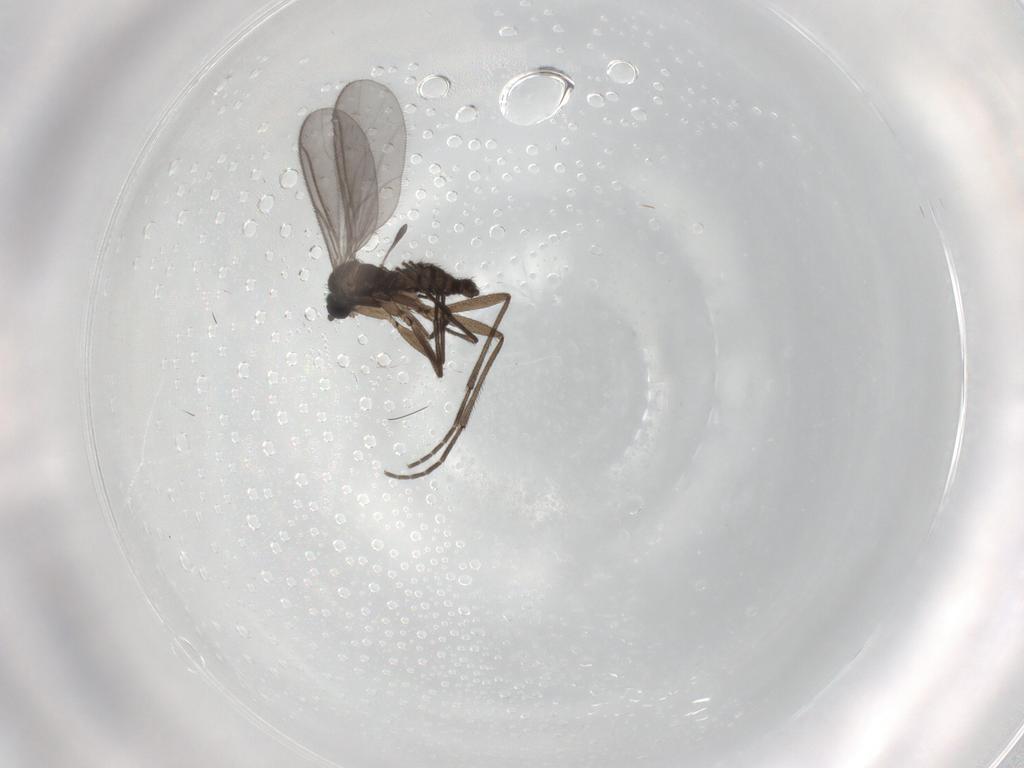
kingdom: Animalia
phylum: Arthropoda
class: Insecta
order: Diptera
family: Sciaridae
